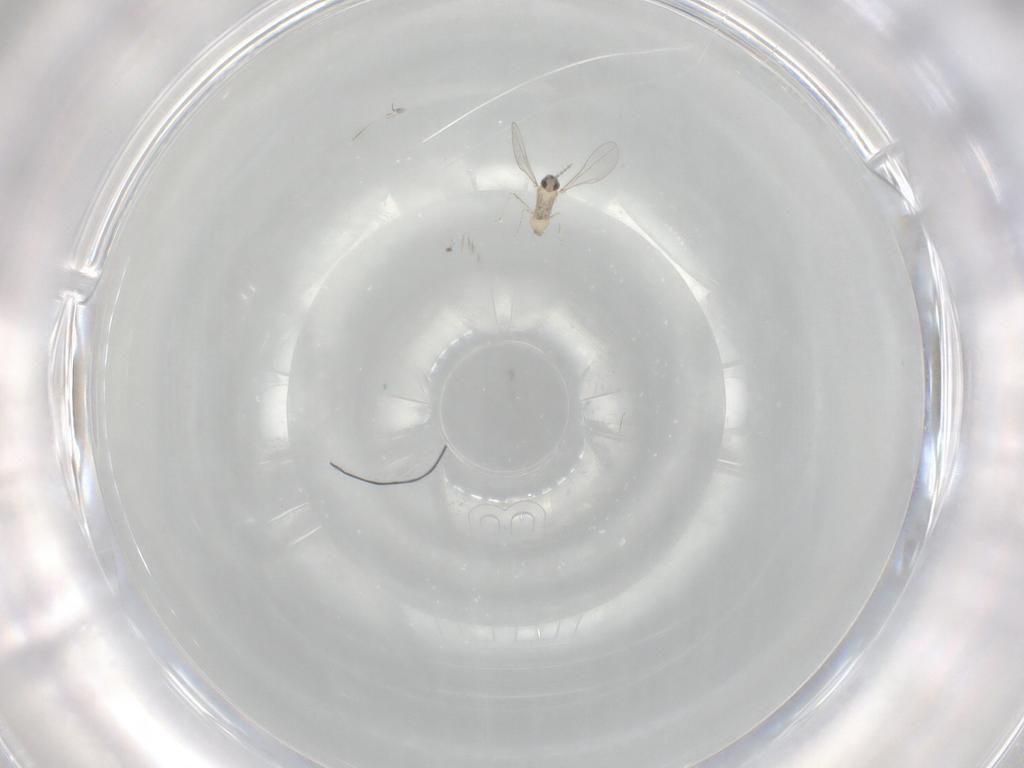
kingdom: Animalia
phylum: Arthropoda
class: Insecta
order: Diptera
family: Cecidomyiidae
